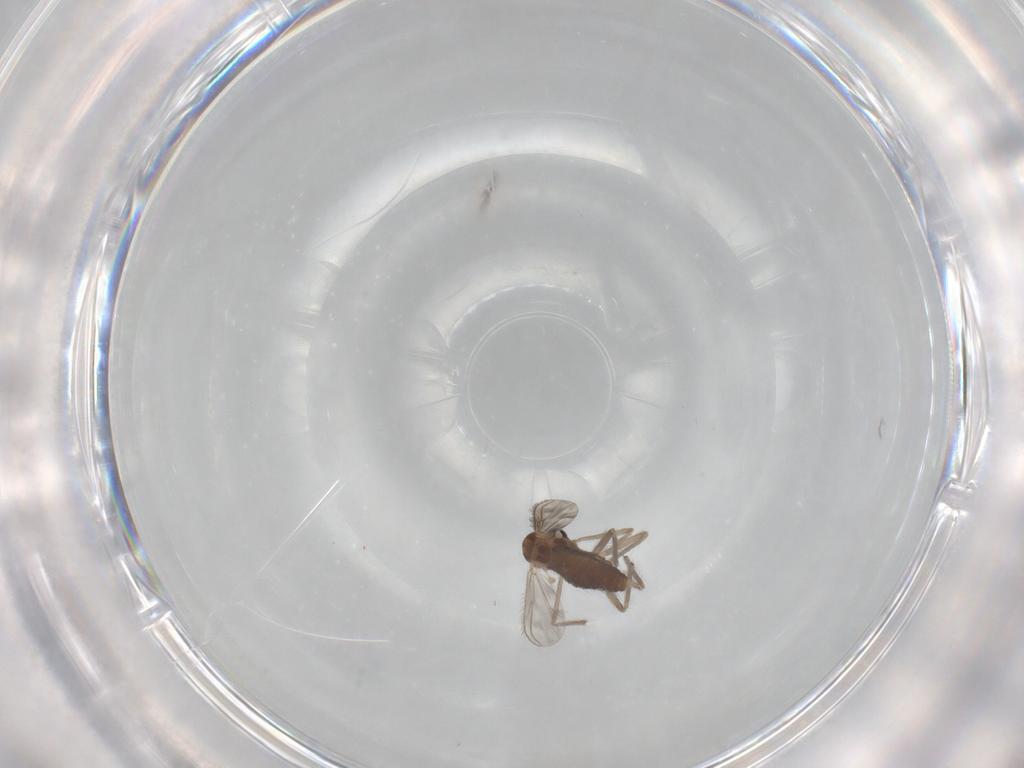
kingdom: Animalia
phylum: Arthropoda
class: Insecta
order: Diptera
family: Chironomidae
